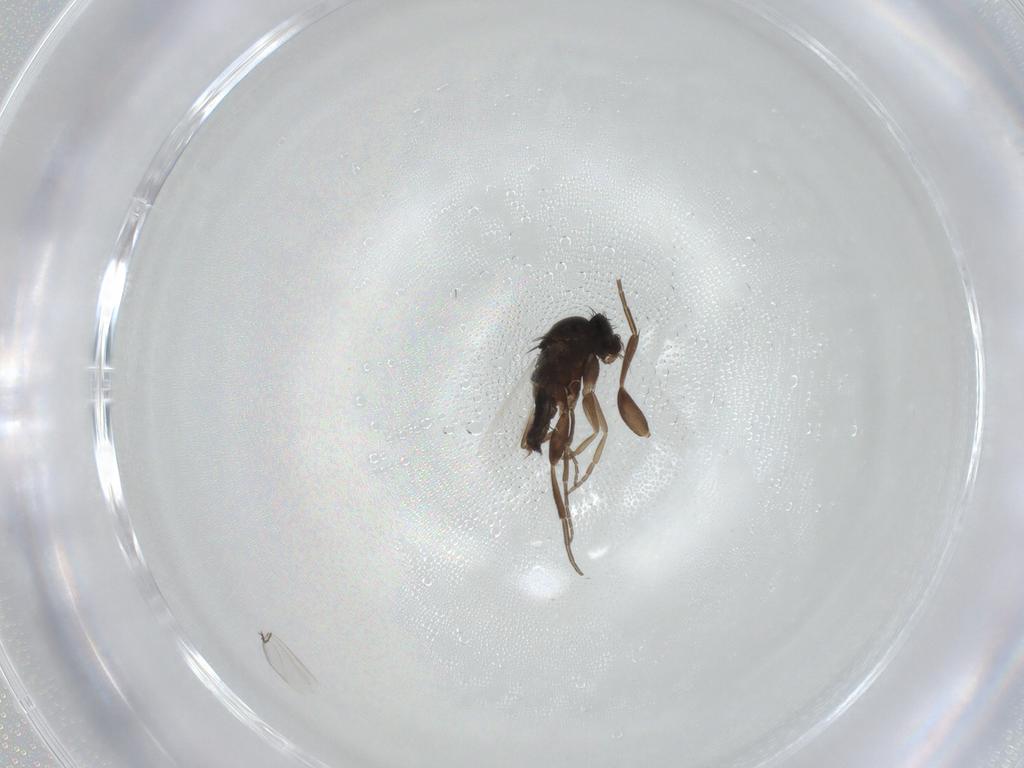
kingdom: Animalia
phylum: Arthropoda
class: Insecta
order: Diptera
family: Phoridae
